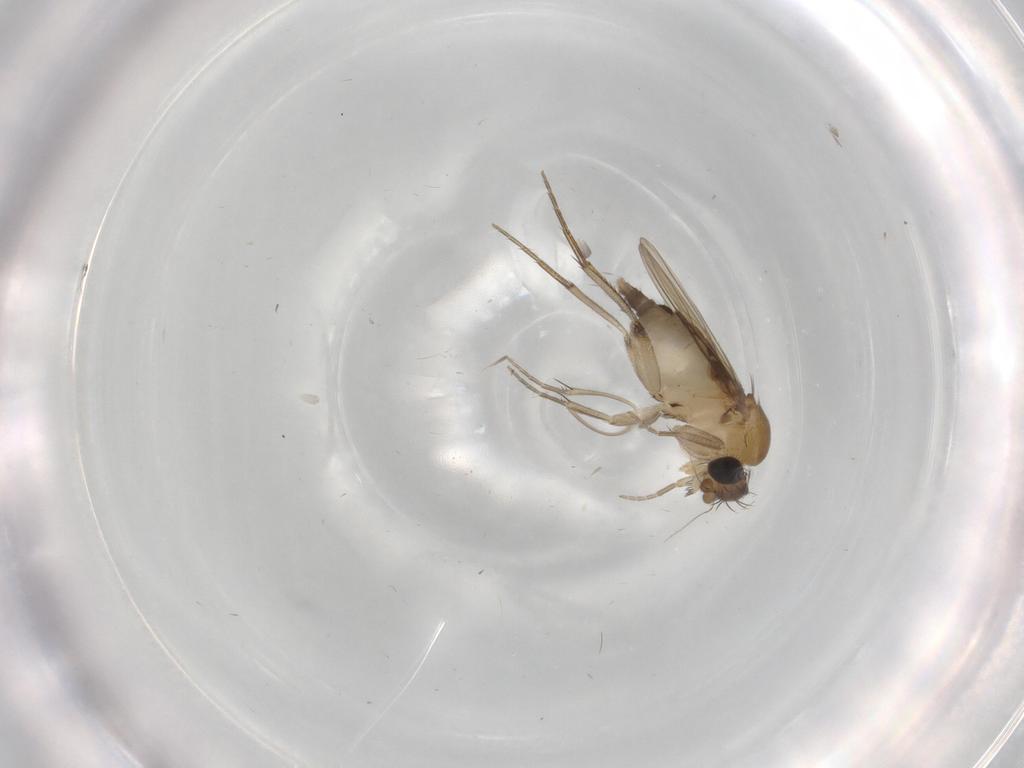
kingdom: Animalia
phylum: Arthropoda
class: Insecta
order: Diptera
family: Phoridae
